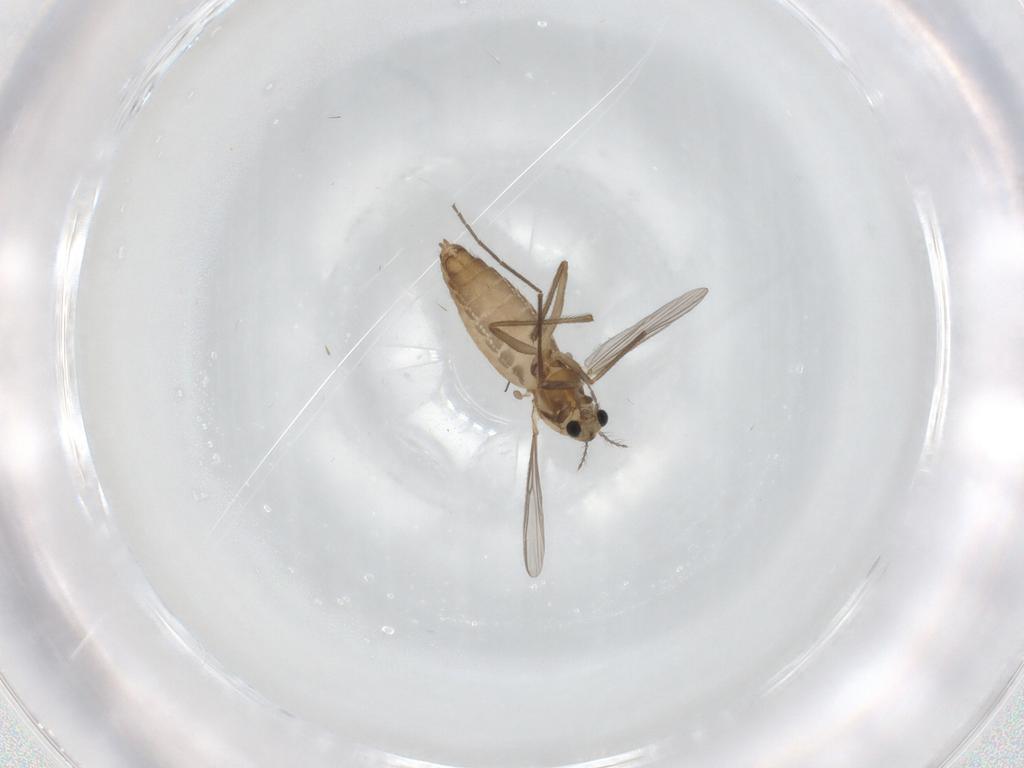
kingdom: Animalia
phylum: Arthropoda
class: Insecta
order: Diptera
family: Chironomidae
